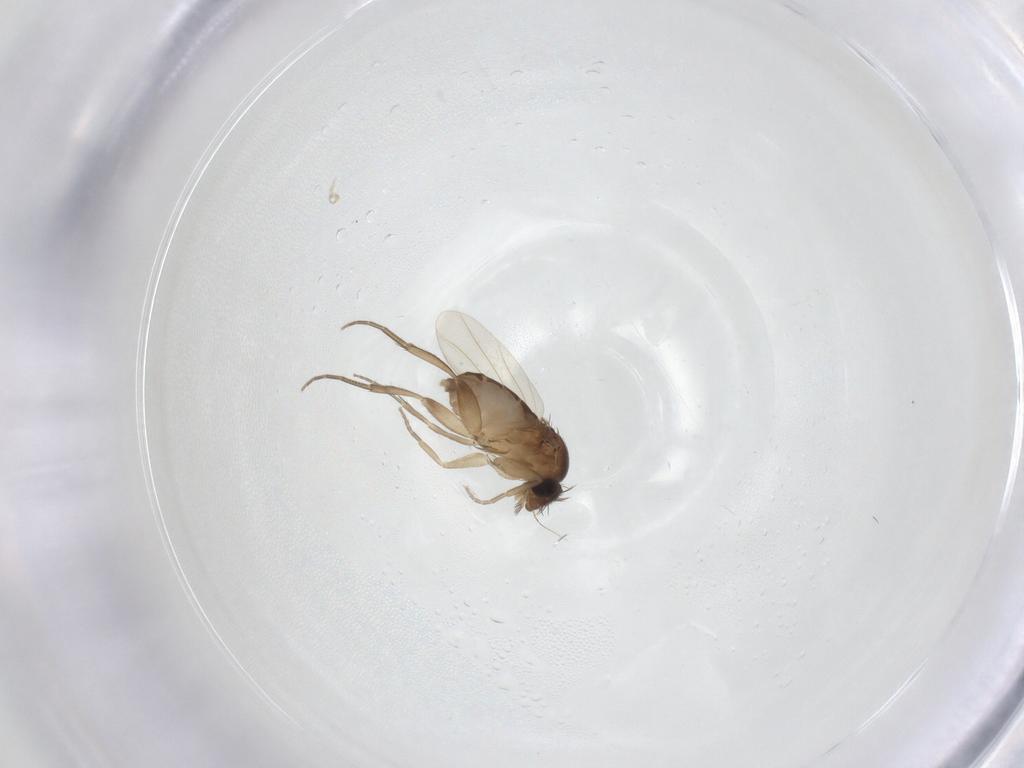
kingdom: Animalia
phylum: Arthropoda
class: Insecta
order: Diptera
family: Phoridae
